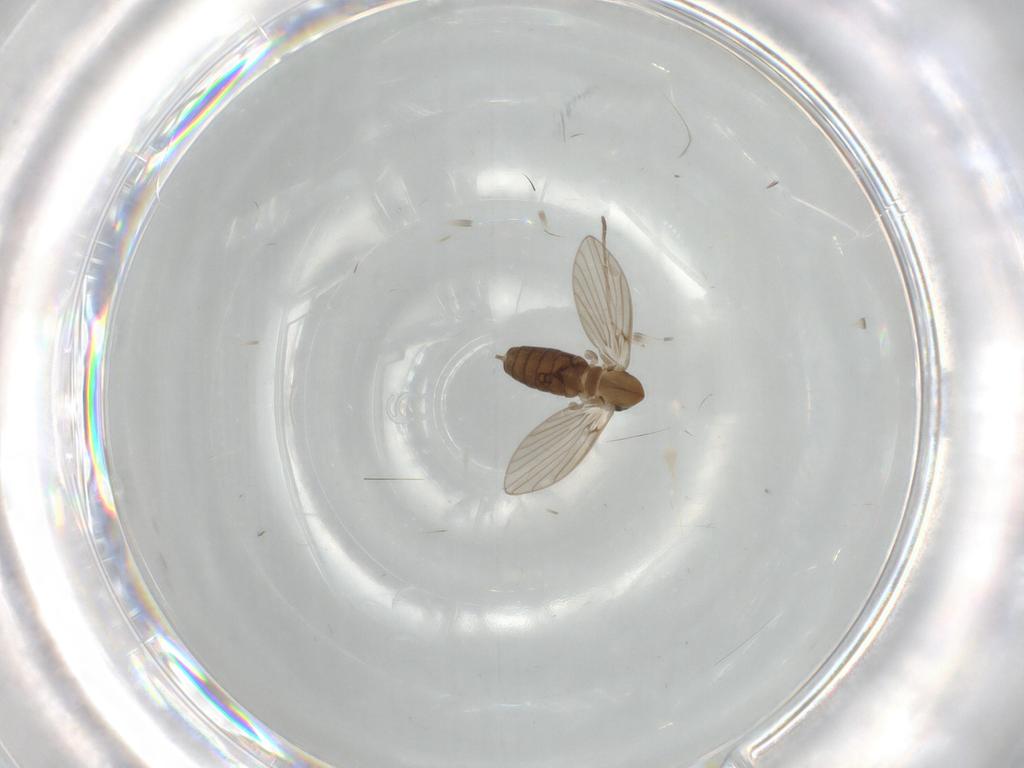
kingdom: Animalia
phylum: Arthropoda
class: Insecta
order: Diptera
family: Psychodidae
